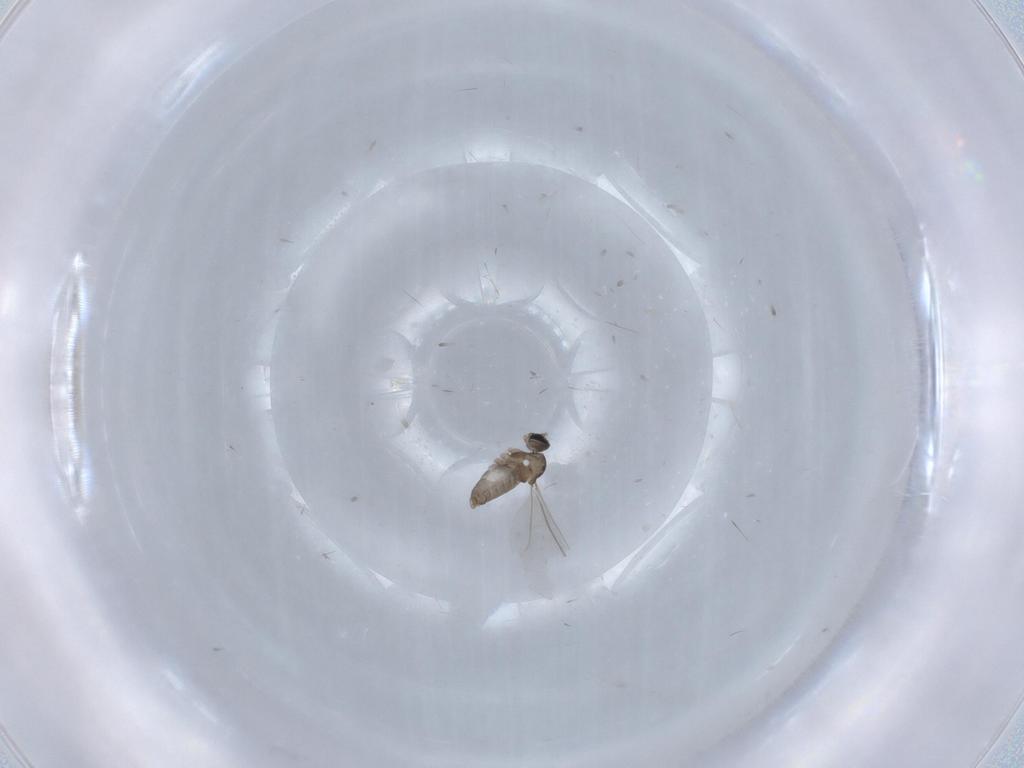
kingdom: Animalia
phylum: Arthropoda
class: Insecta
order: Diptera
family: Cecidomyiidae
